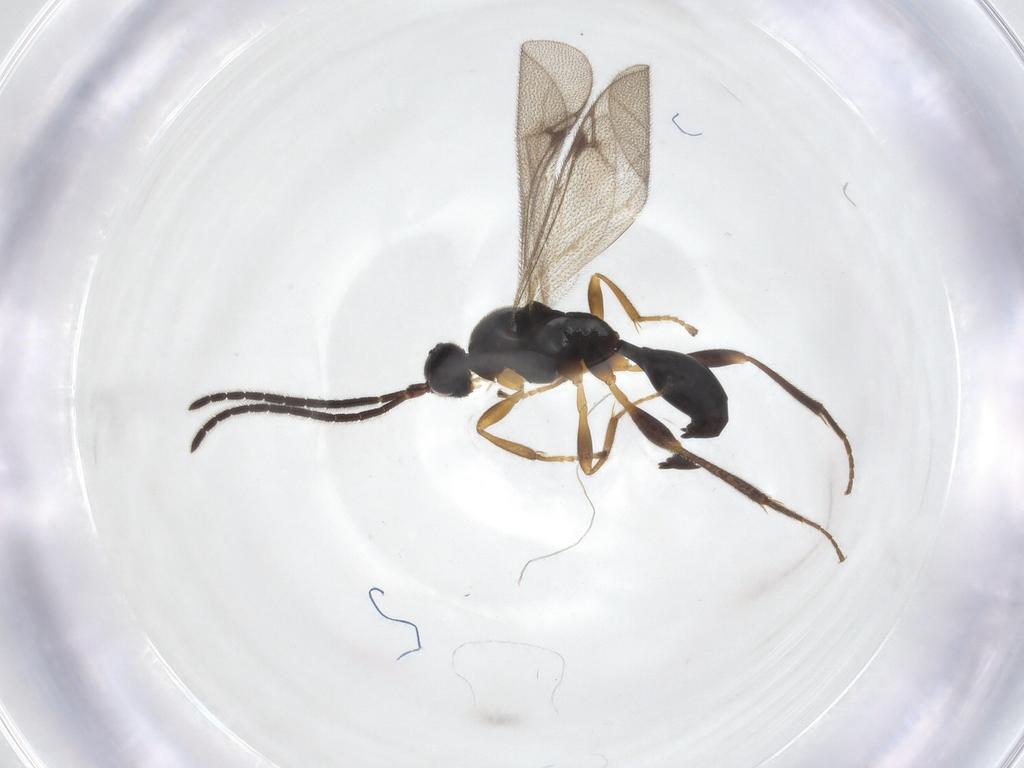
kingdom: Animalia
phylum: Arthropoda
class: Insecta
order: Hymenoptera
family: Proctotrupidae
